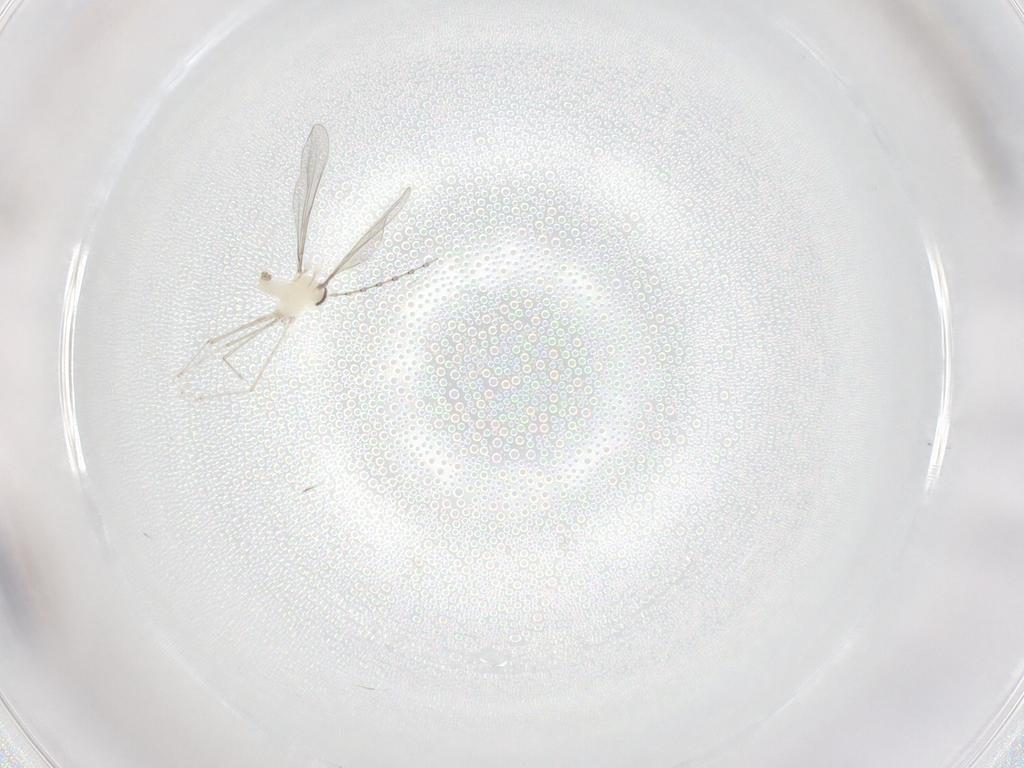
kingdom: Animalia
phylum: Arthropoda
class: Insecta
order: Diptera
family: Cecidomyiidae
